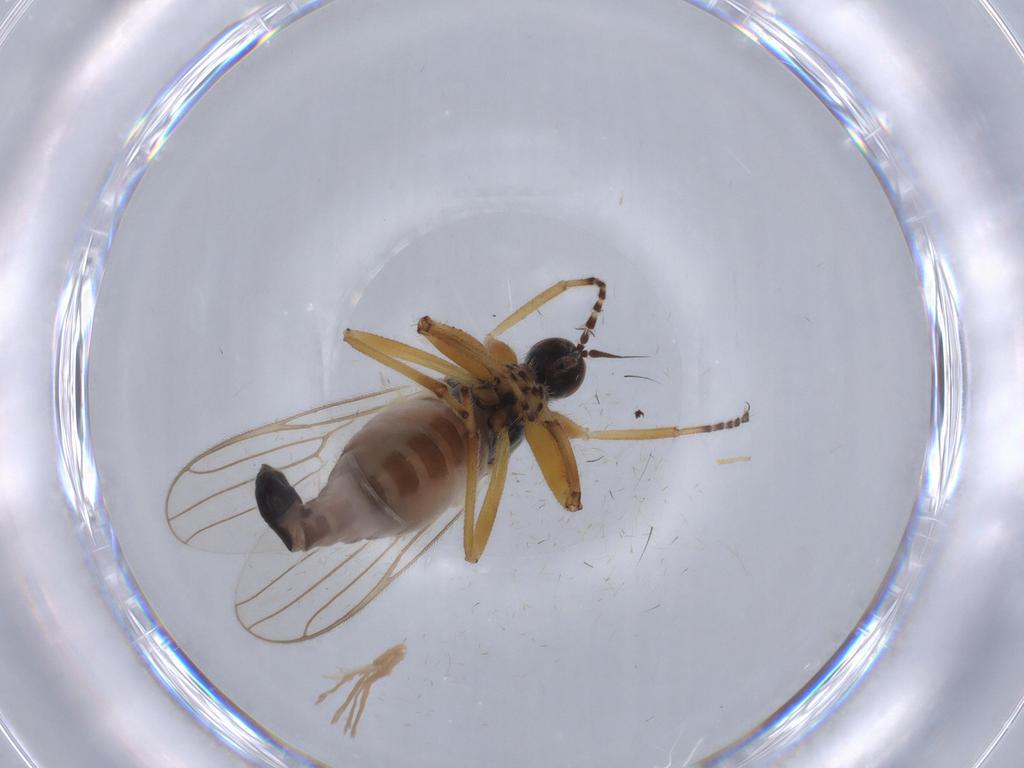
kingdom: Animalia
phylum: Arthropoda
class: Insecta
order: Diptera
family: Hybotidae
